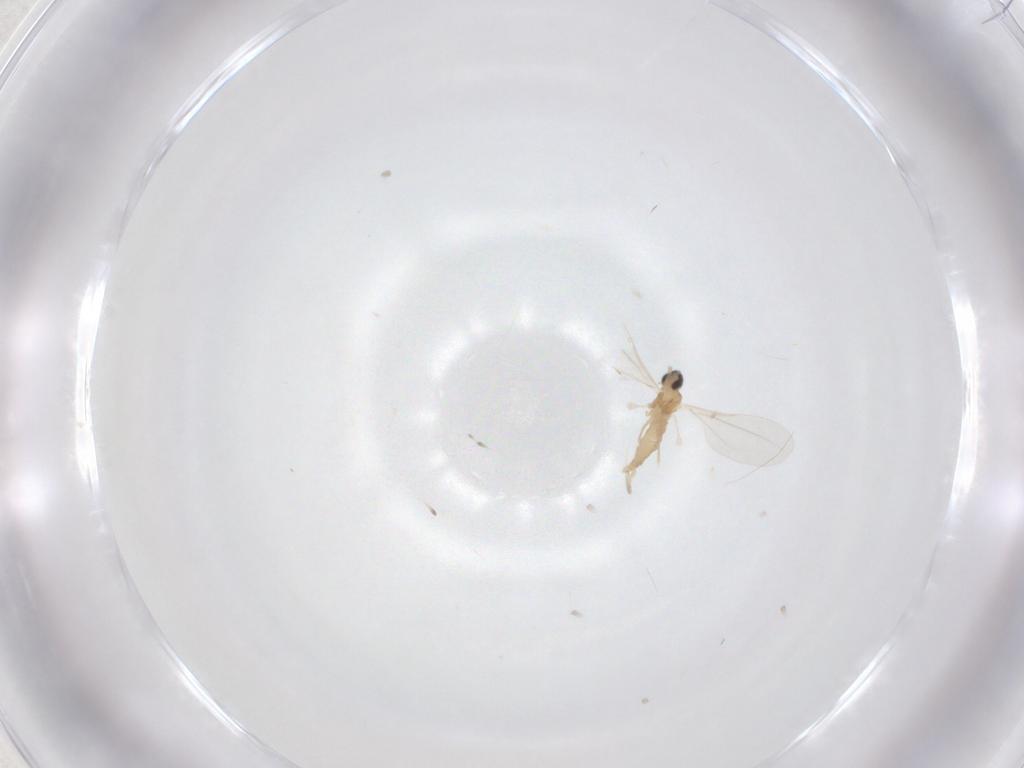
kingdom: Animalia
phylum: Arthropoda
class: Insecta
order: Diptera
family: Cecidomyiidae
